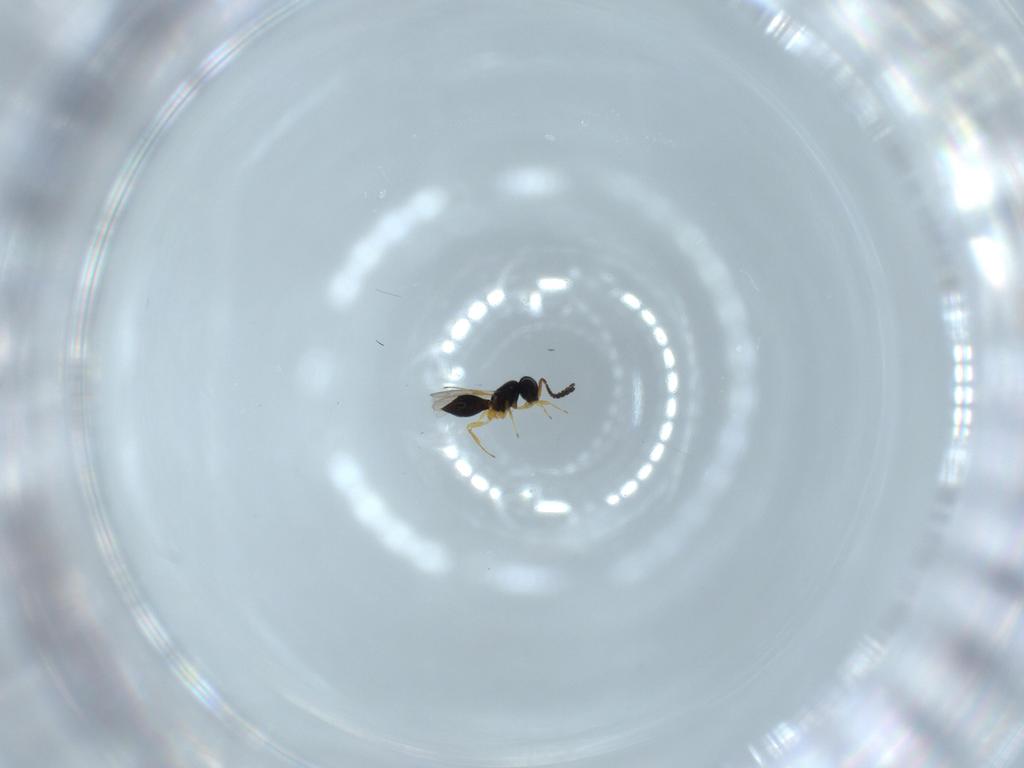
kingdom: Animalia
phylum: Arthropoda
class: Insecta
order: Hymenoptera
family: Scelionidae
